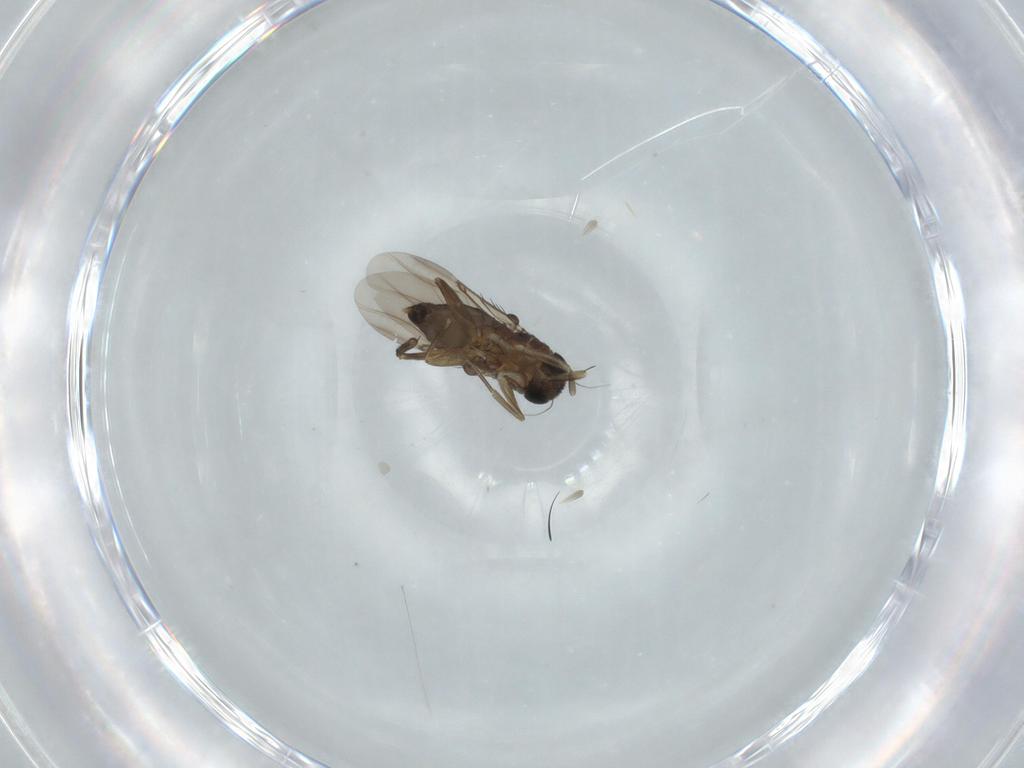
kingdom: Animalia
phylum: Arthropoda
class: Insecta
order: Diptera
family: Phoridae
